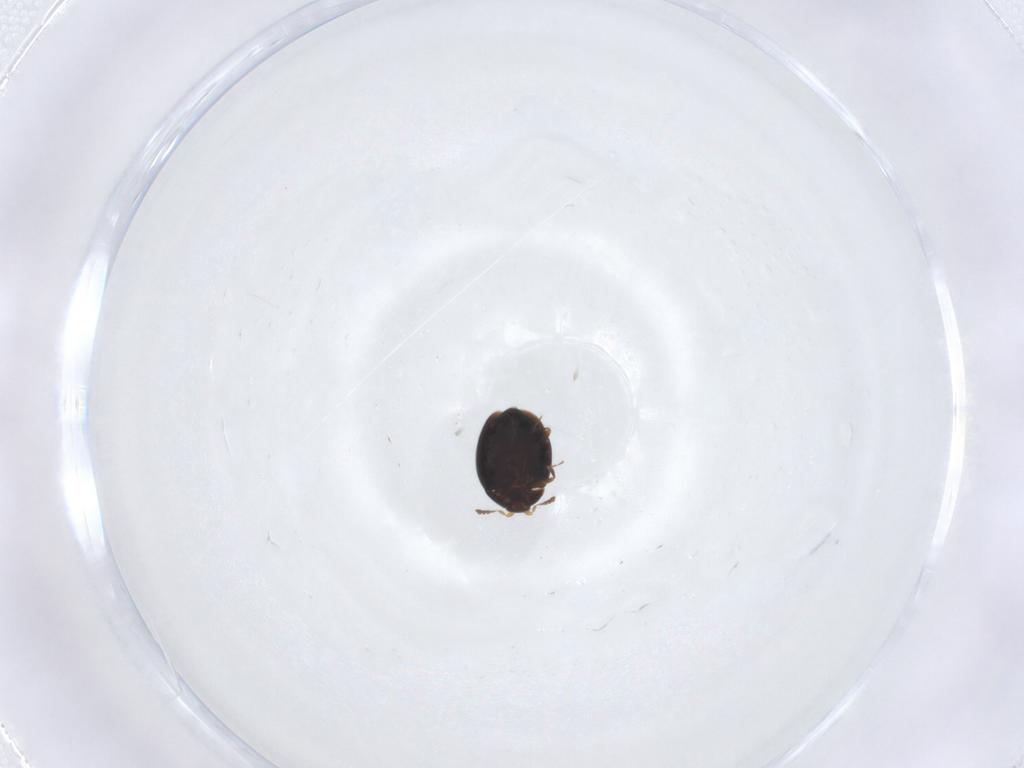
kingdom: Animalia
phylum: Arthropoda
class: Insecta
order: Coleoptera
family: Corylophidae
